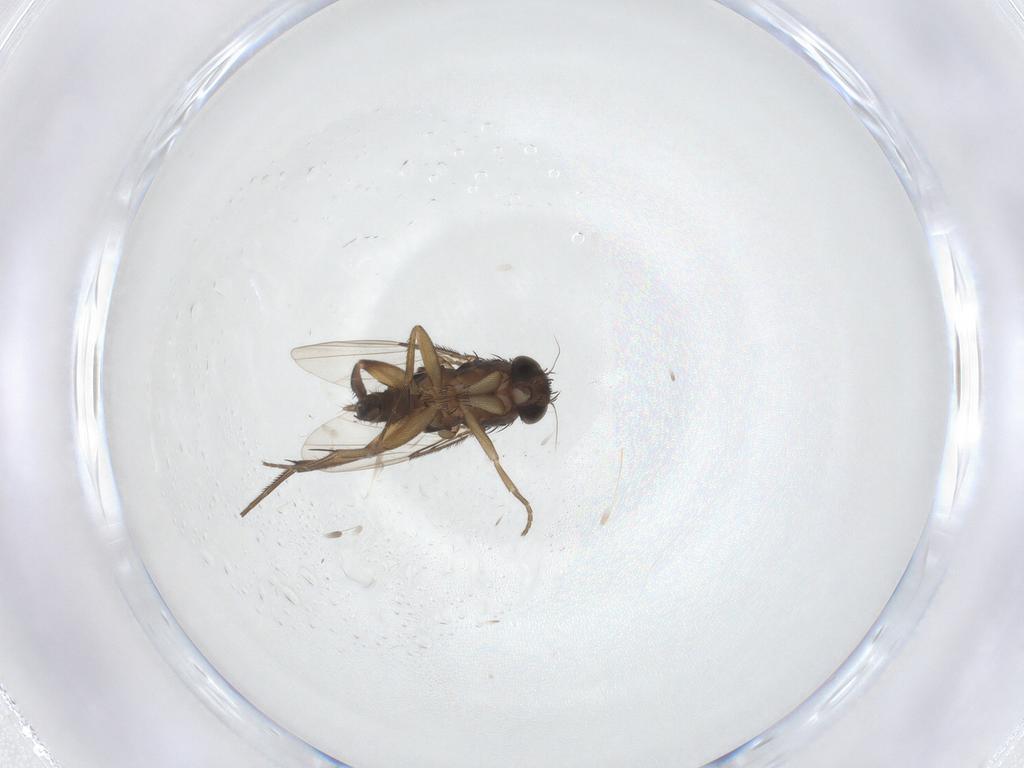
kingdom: Animalia
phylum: Arthropoda
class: Insecta
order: Diptera
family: Phoridae
